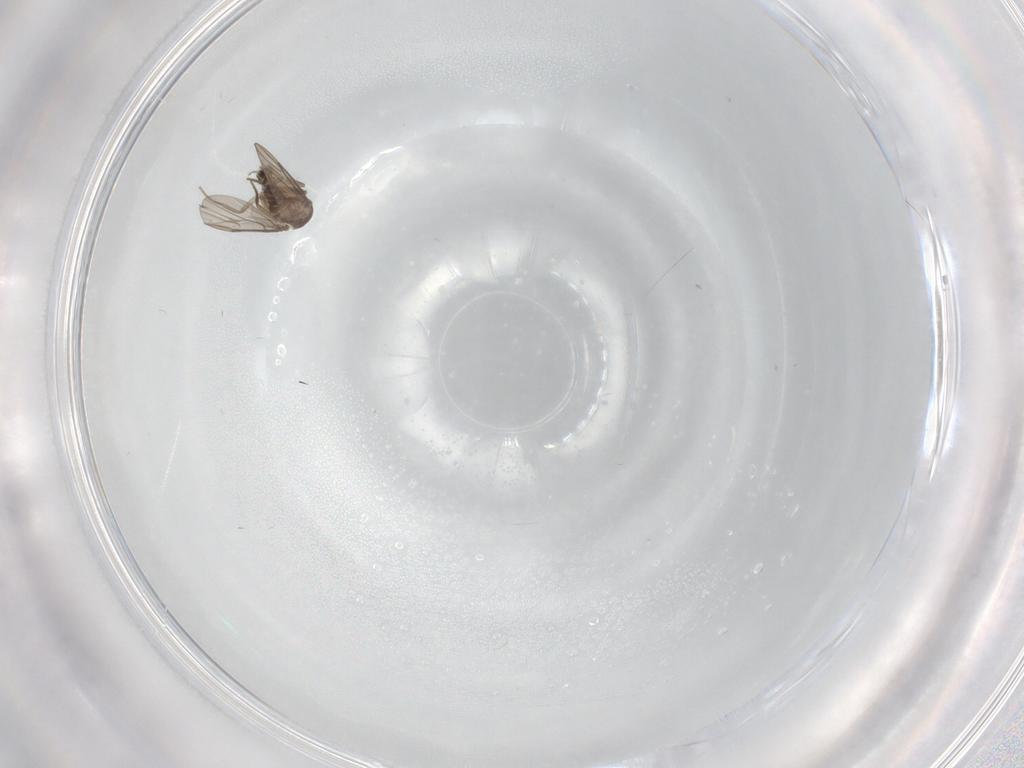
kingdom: Animalia
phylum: Arthropoda
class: Insecta
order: Diptera
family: Phoridae
